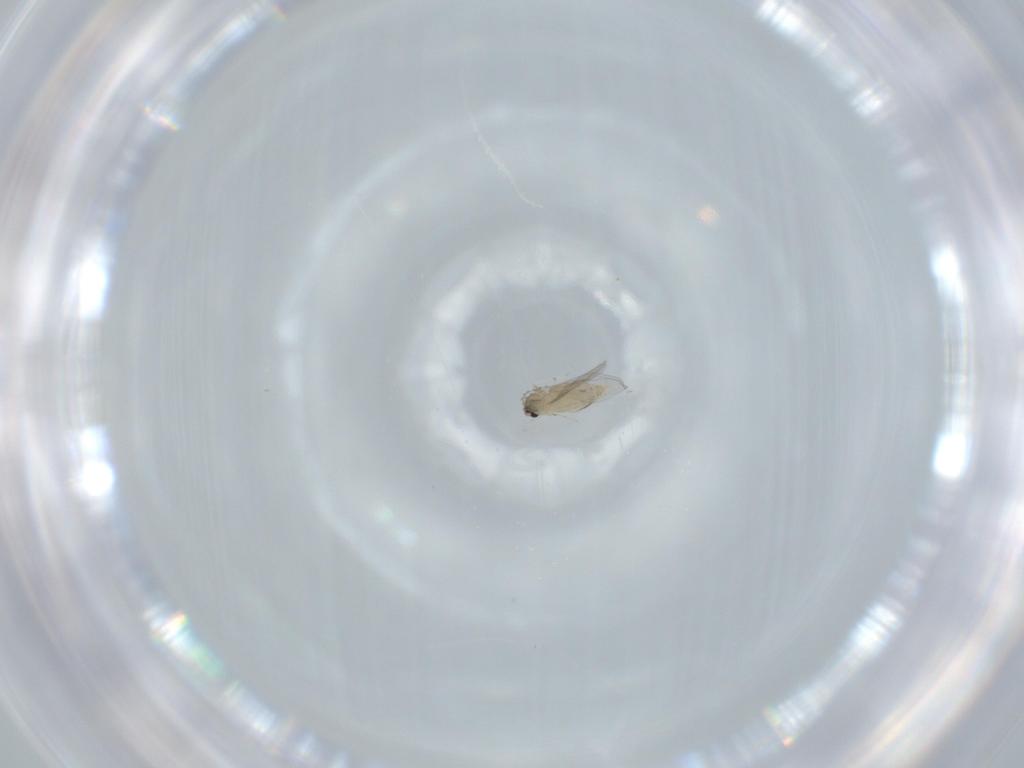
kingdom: Animalia
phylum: Arthropoda
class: Insecta
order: Diptera
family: Cecidomyiidae
